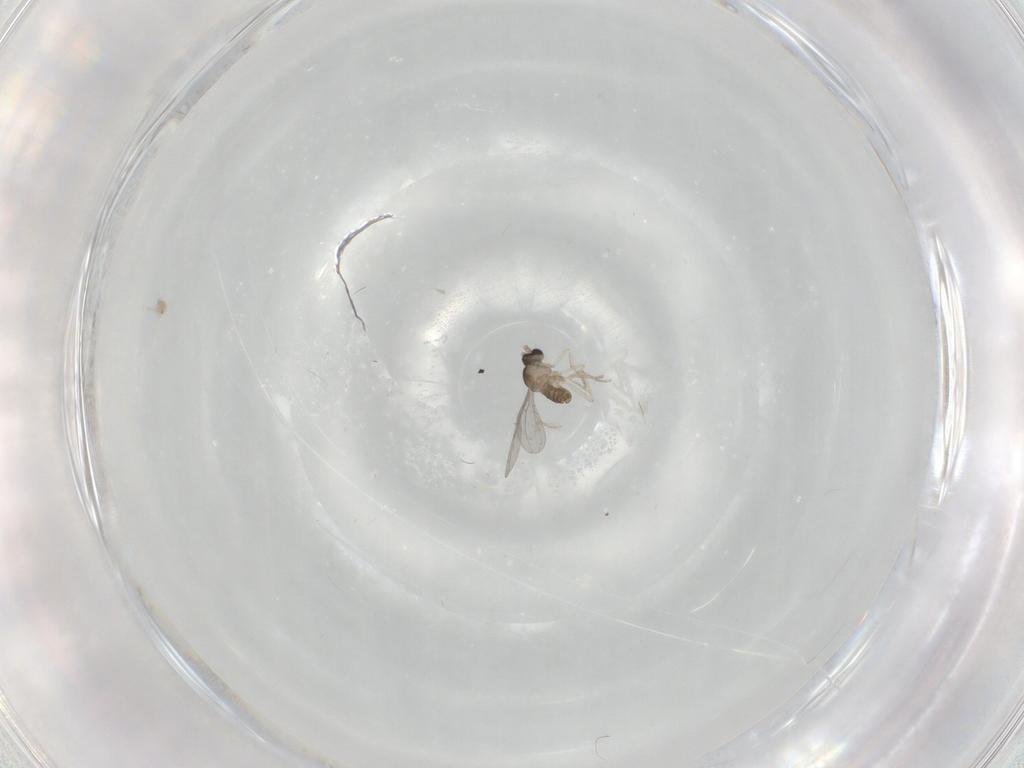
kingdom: Animalia
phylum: Arthropoda
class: Insecta
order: Diptera
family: Cecidomyiidae
